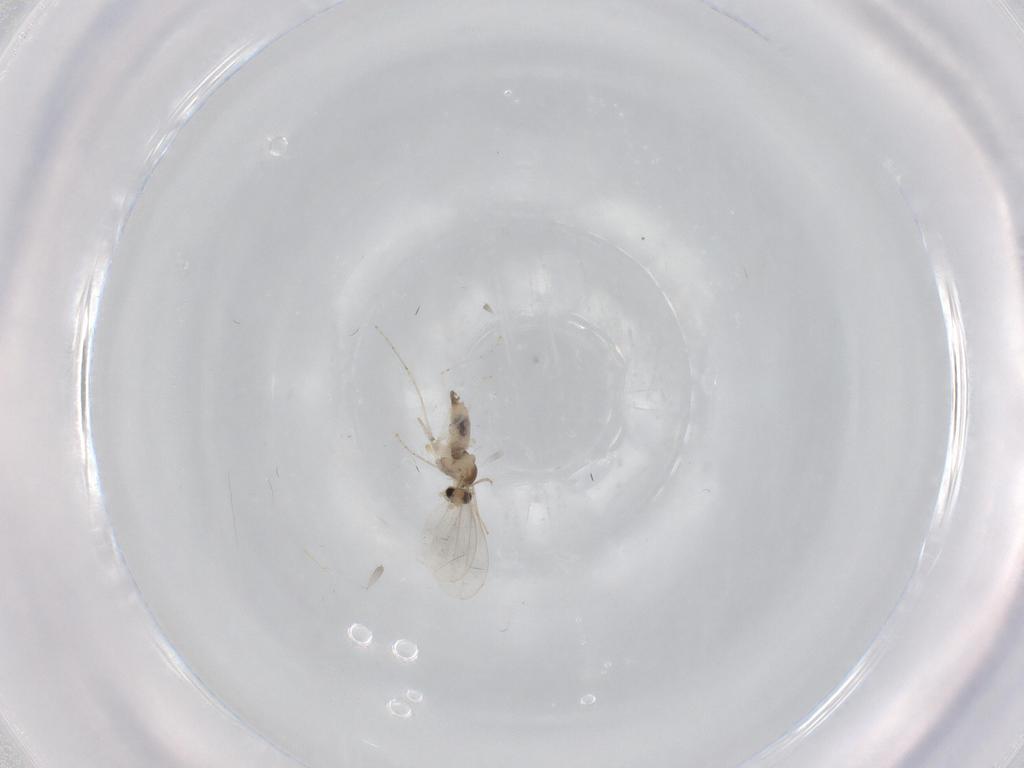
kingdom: Animalia
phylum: Arthropoda
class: Insecta
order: Diptera
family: Cecidomyiidae
